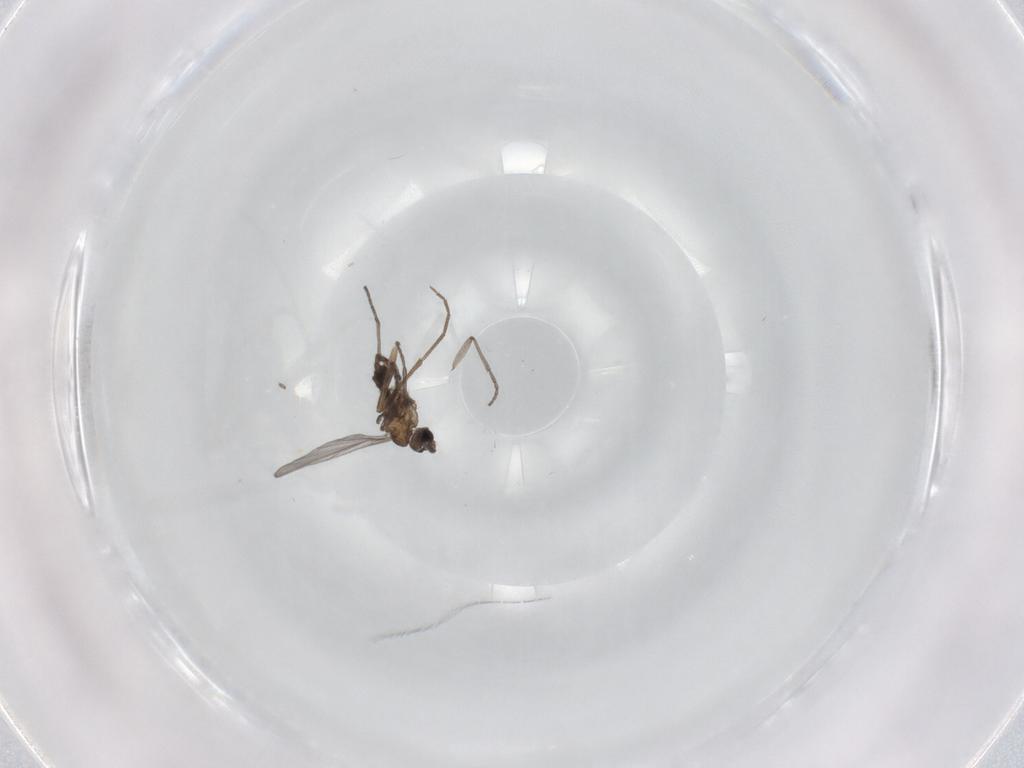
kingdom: Animalia
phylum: Arthropoda
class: Insecta
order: Diptera
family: Sciaridae
